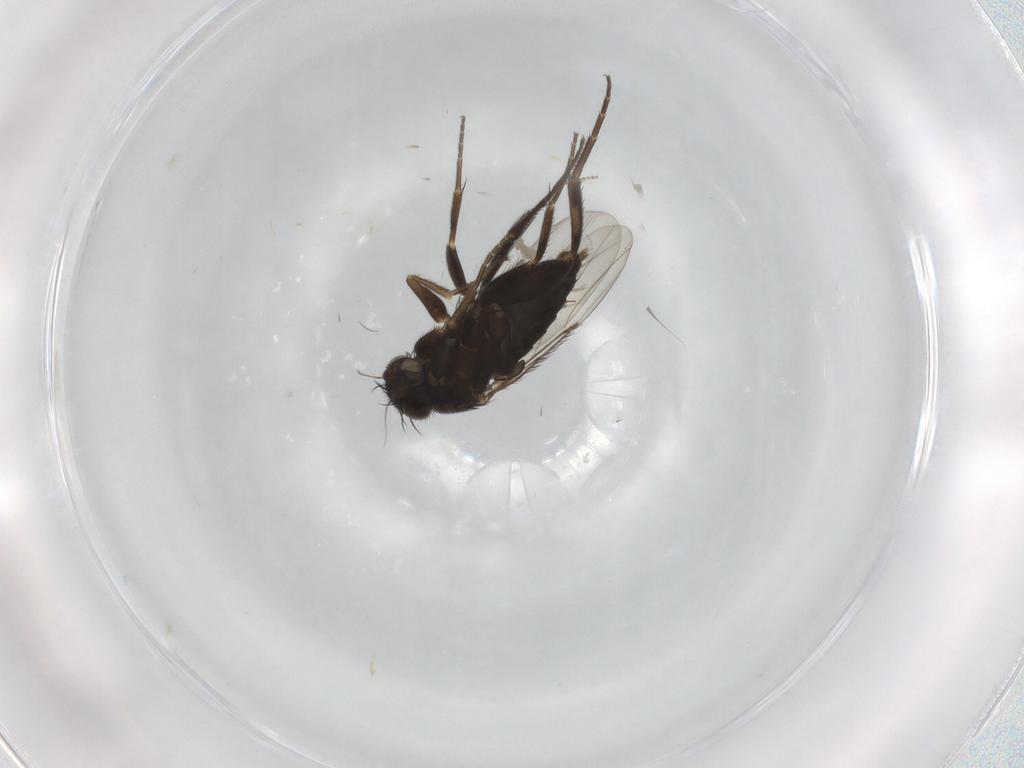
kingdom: Animalia
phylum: Arthropoda
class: Insecta
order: Diptera
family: Phoridae
